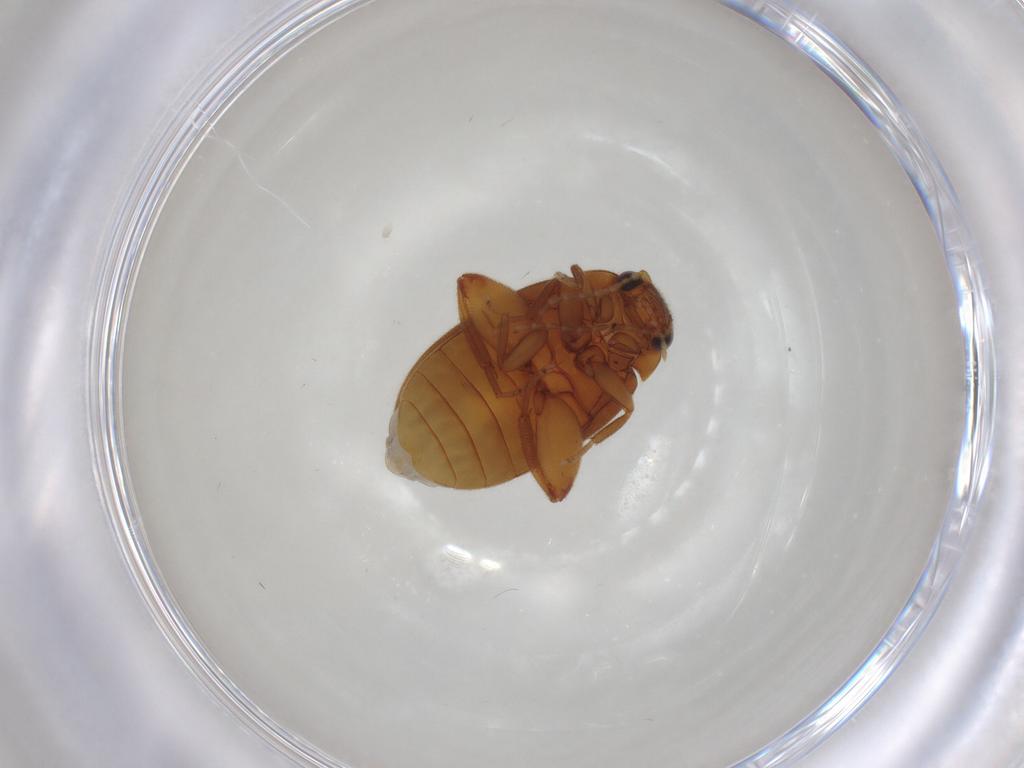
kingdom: Animalia
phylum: Arthropoda
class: Insecta
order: Coleoptera
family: Scirtidae
